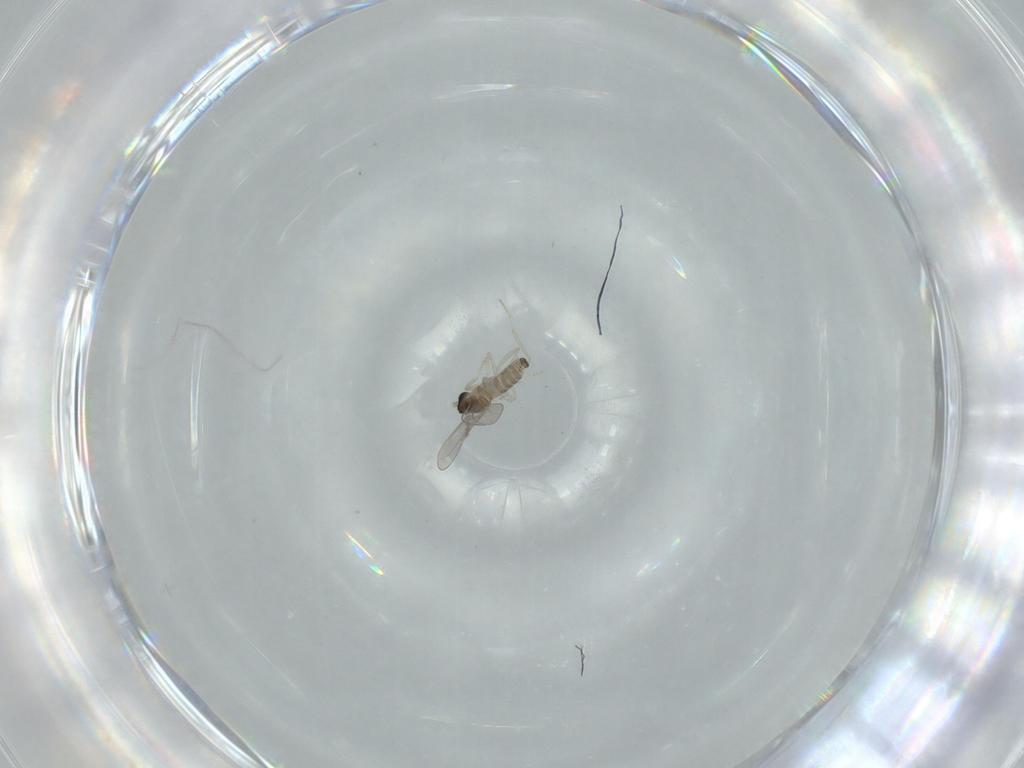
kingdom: Animalia
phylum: Arthropoda
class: Insecta
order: Diptera
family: Cecidomyiidae
